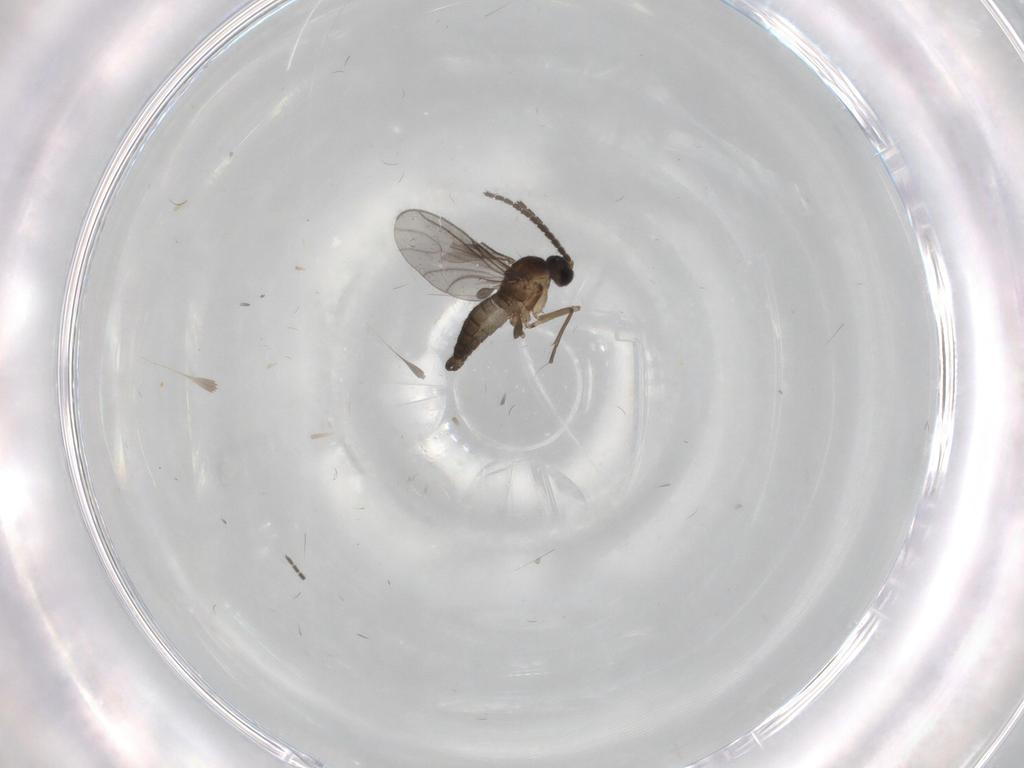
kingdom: Animalia
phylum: Arthropoda
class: Insecta
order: Diptera
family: Sciaridae
